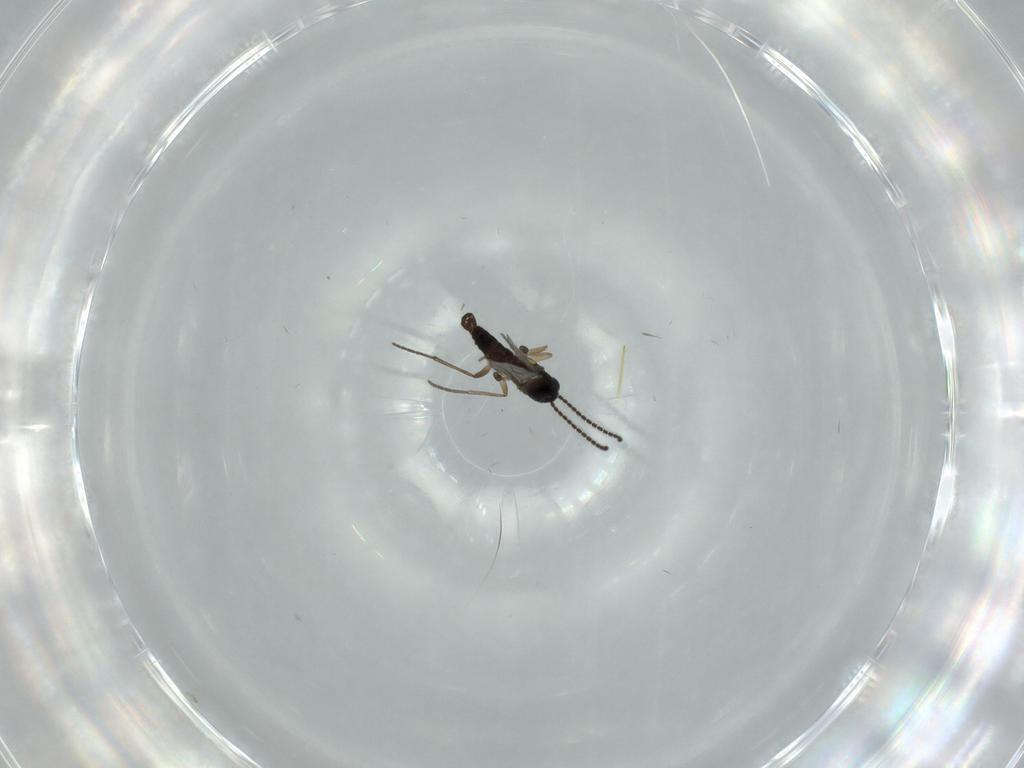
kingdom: Animalia
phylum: Arthropoda
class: Insecta
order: Diptera
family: Sciaridae
